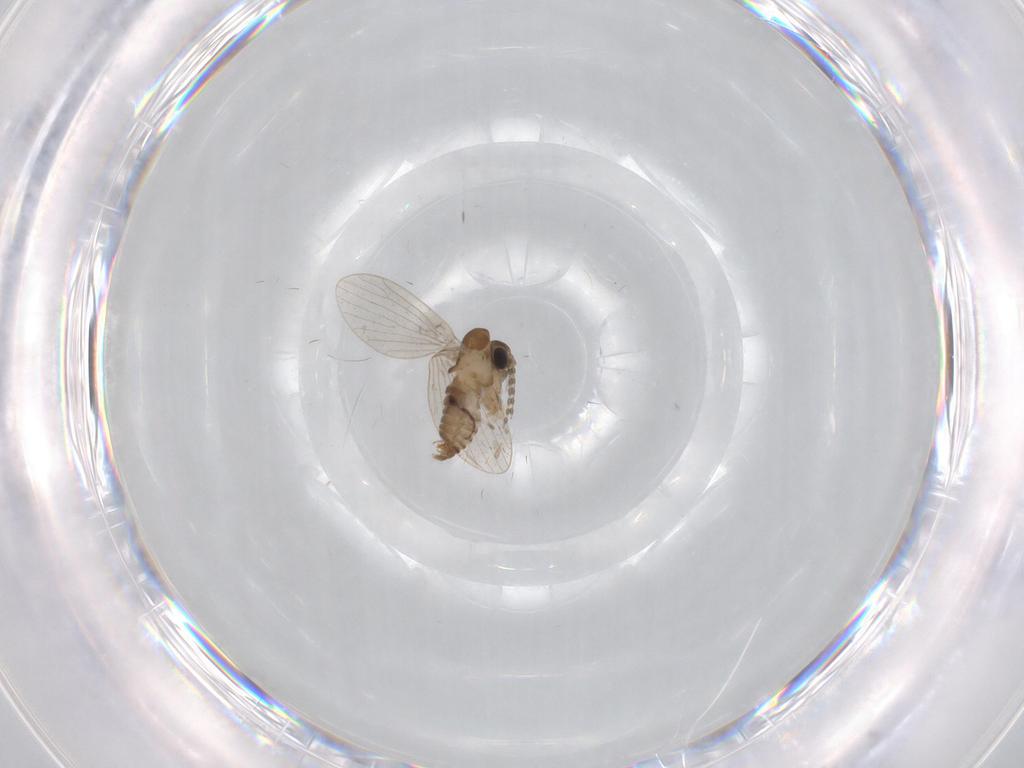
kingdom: Animalia
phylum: Arthropoda
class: Insecta
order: Diptera
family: Psychodidae
